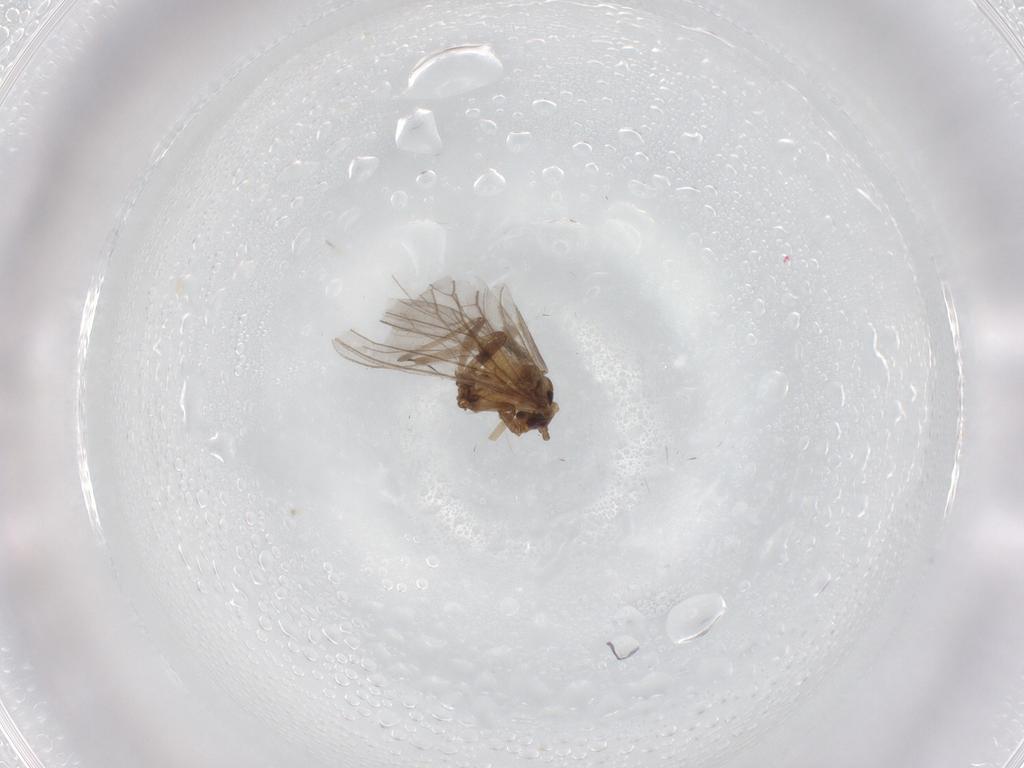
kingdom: Animalia
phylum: Arthropoda
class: Insecta
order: Neuroptera
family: Coniopterygidae
